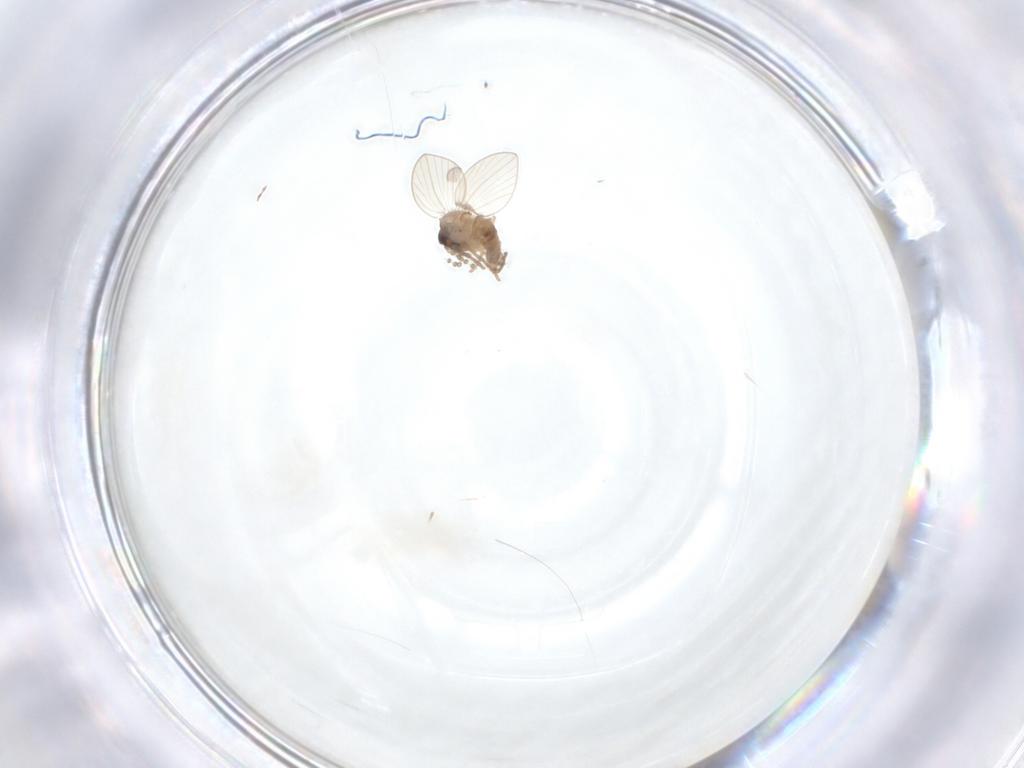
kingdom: Animalia
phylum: Arthropoda
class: Insecta
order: Diptera
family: Psychodidae
